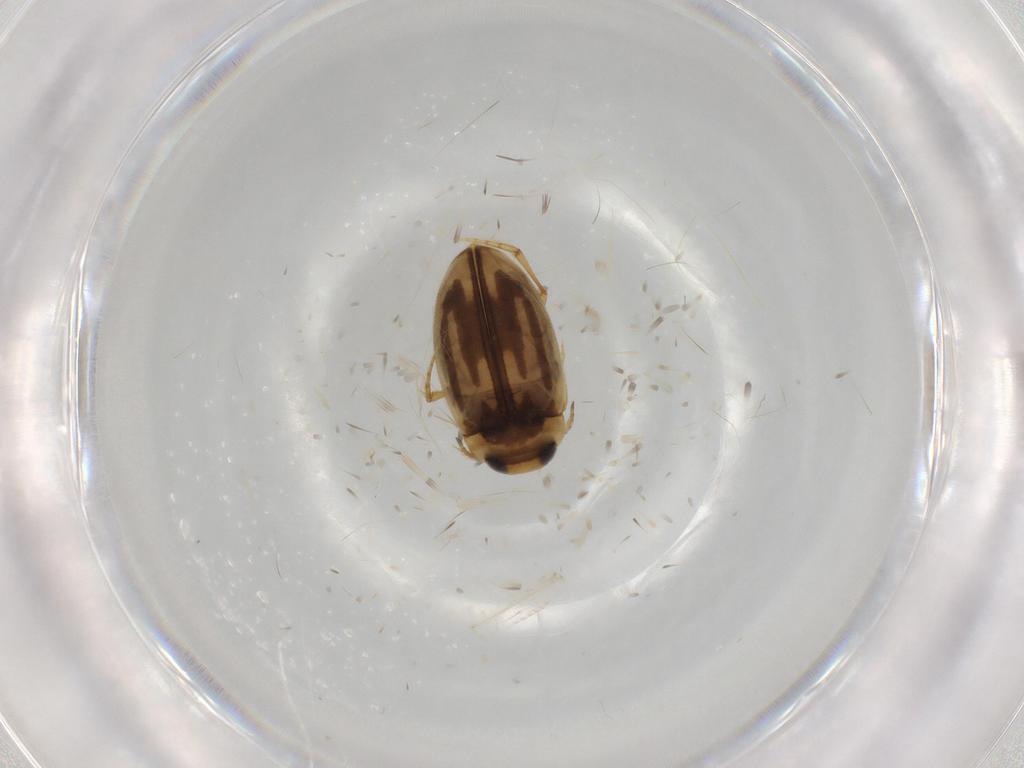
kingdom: Animalia
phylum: Arthropoda
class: Insecta
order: Coleoptera
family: Dytiscidae
